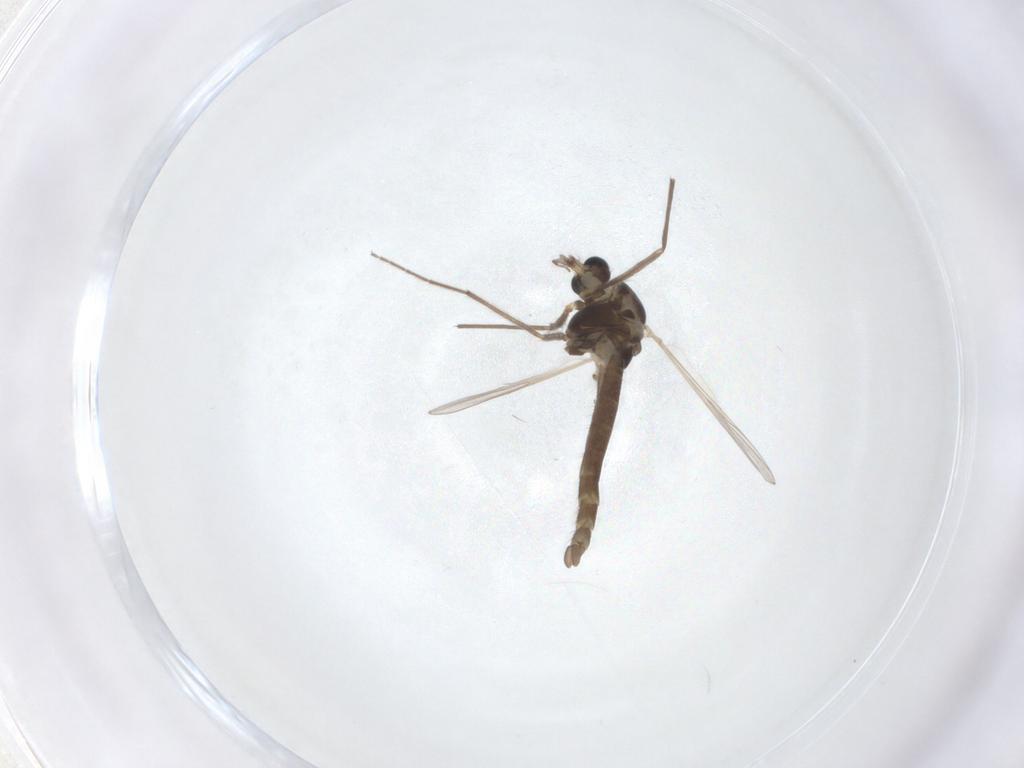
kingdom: Animalia
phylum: Arthropoda
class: Insecta
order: Diptera
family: Chironomidae
